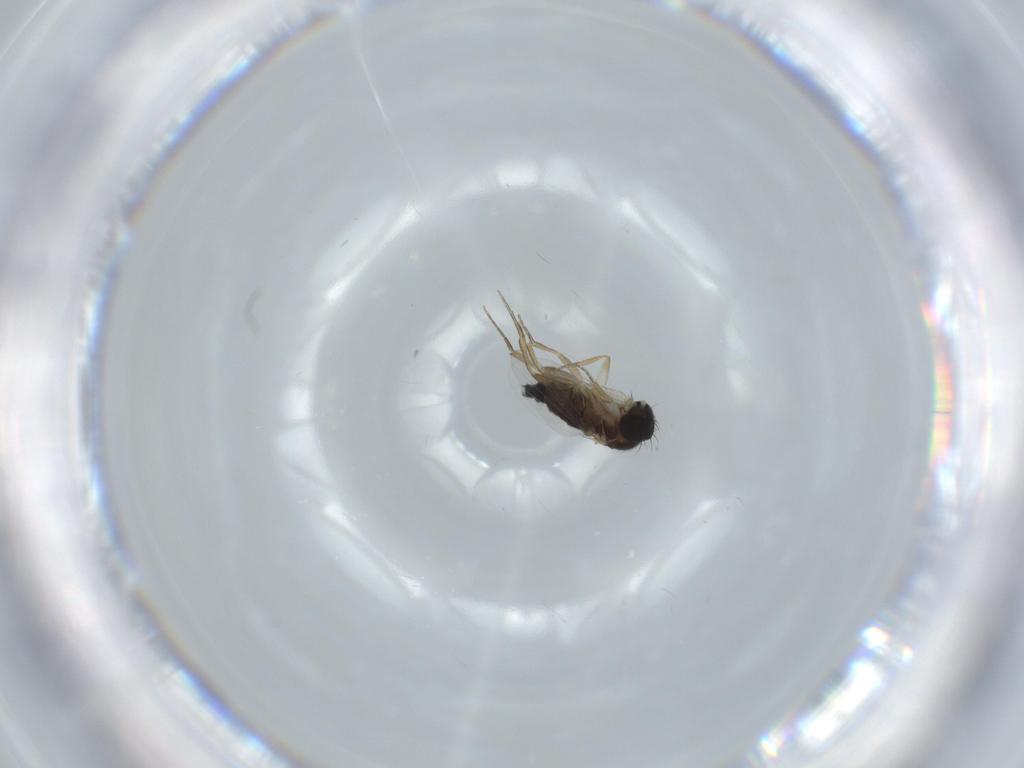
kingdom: Animalia
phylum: Arthropoda
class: Insecta
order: Diptera
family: Phoridae
